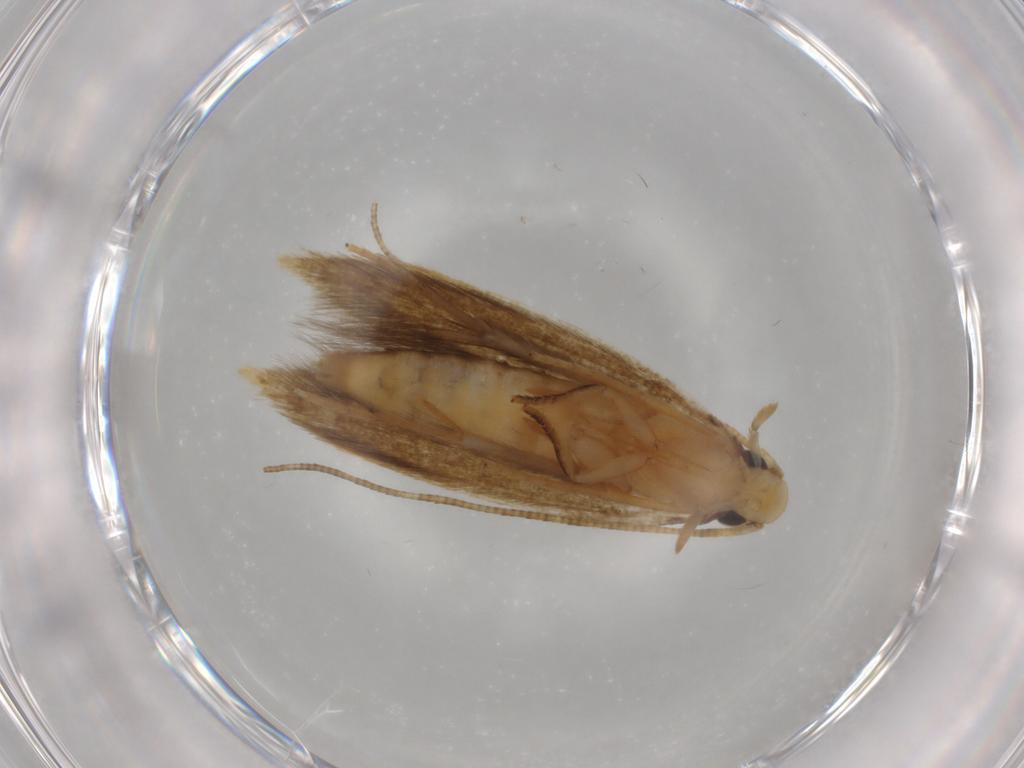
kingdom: Animalia
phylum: Arthropoda
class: Insecta
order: Lepidoptera
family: Tineidae
